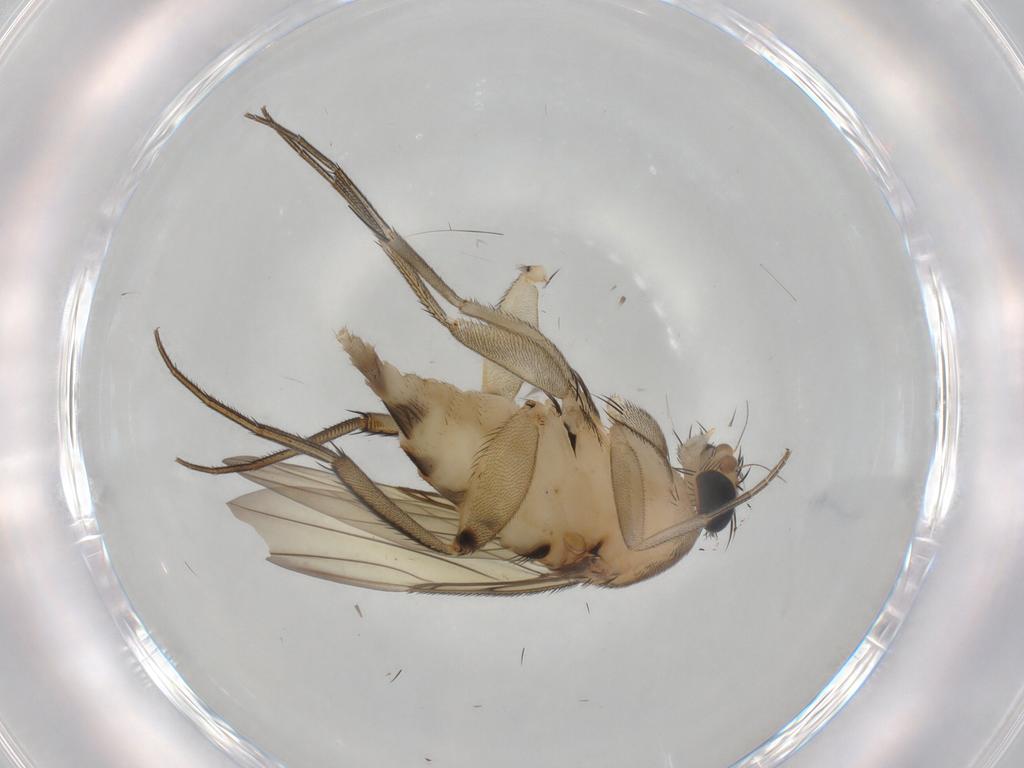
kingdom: Animalia
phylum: Arthropoda
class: Insecta
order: Diptera
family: Phoridae
